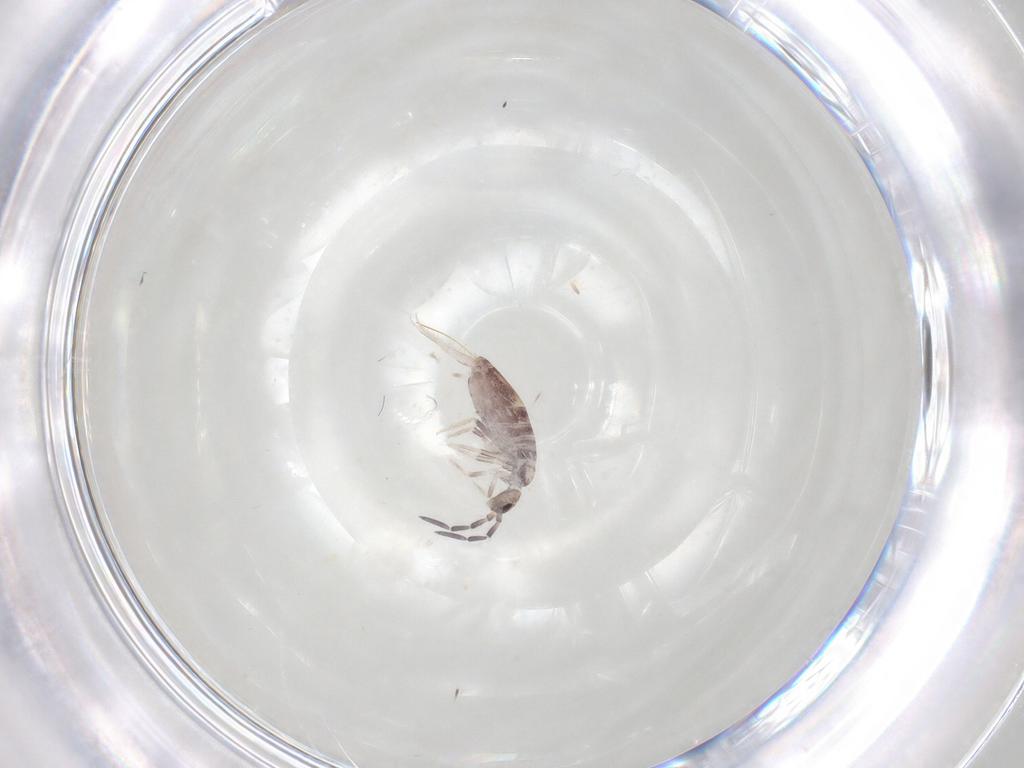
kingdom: Animalia
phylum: Arthropoda
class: Collembola
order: Poduromorpha
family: Hypogastruridae
